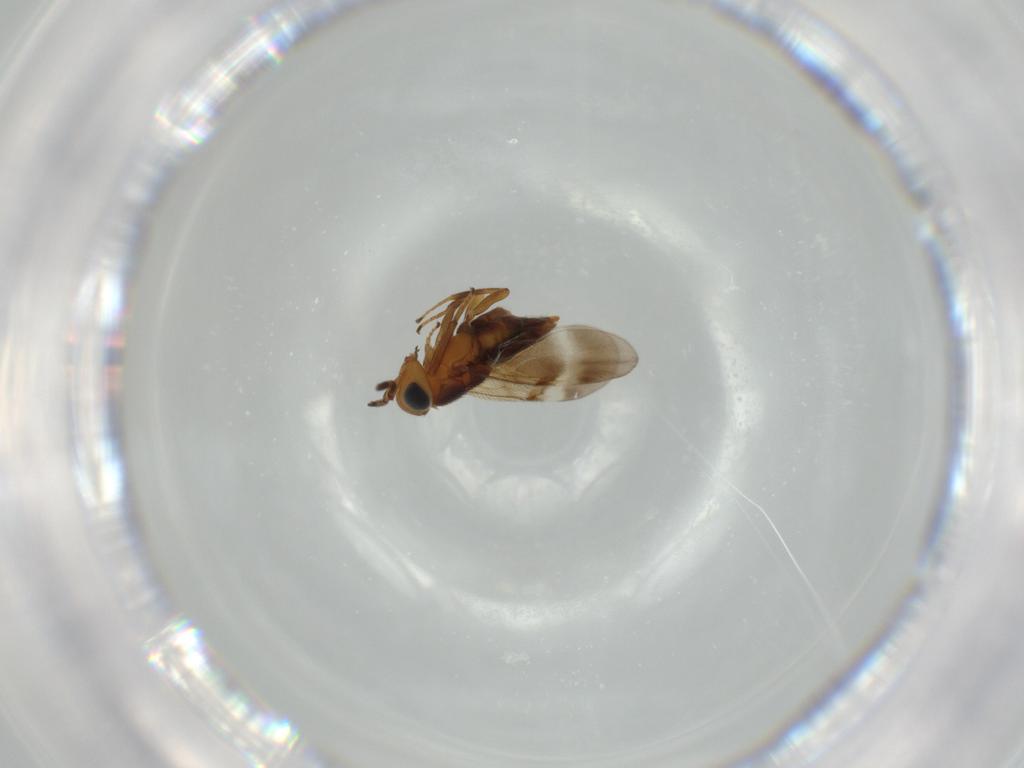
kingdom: Animalia
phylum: Arthropoda
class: Insecta
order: Hymenoptera
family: Encyrtidae
